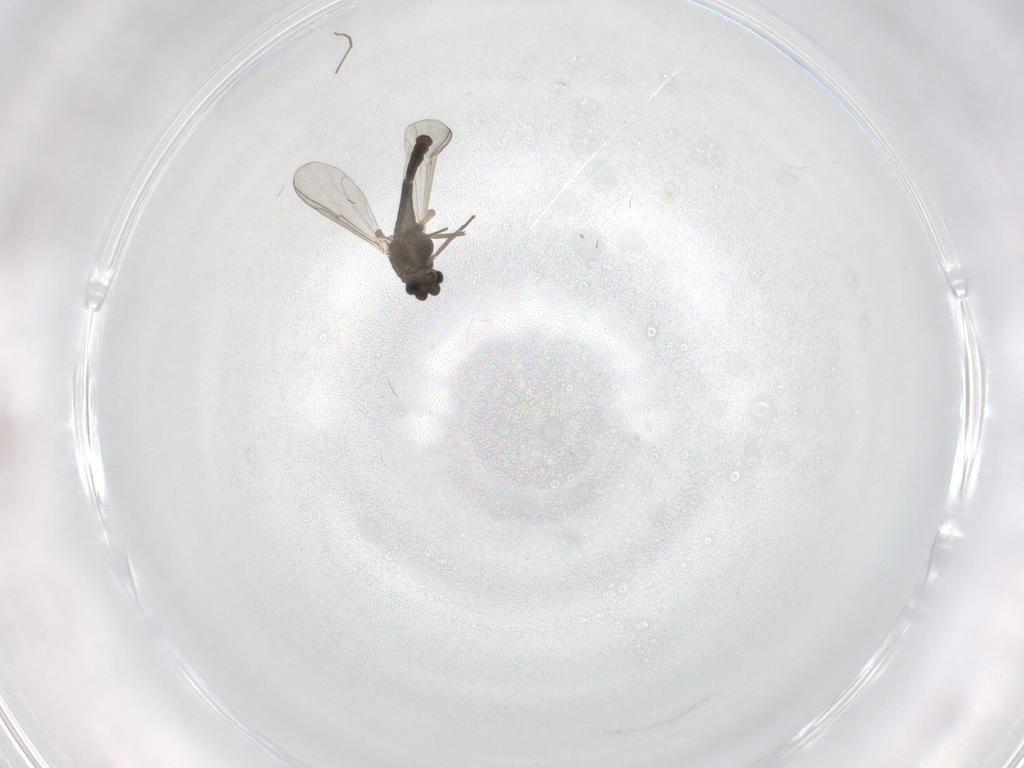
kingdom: Animalia
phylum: Arthropoda
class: Insecta
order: Diptera
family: Chironomidae
